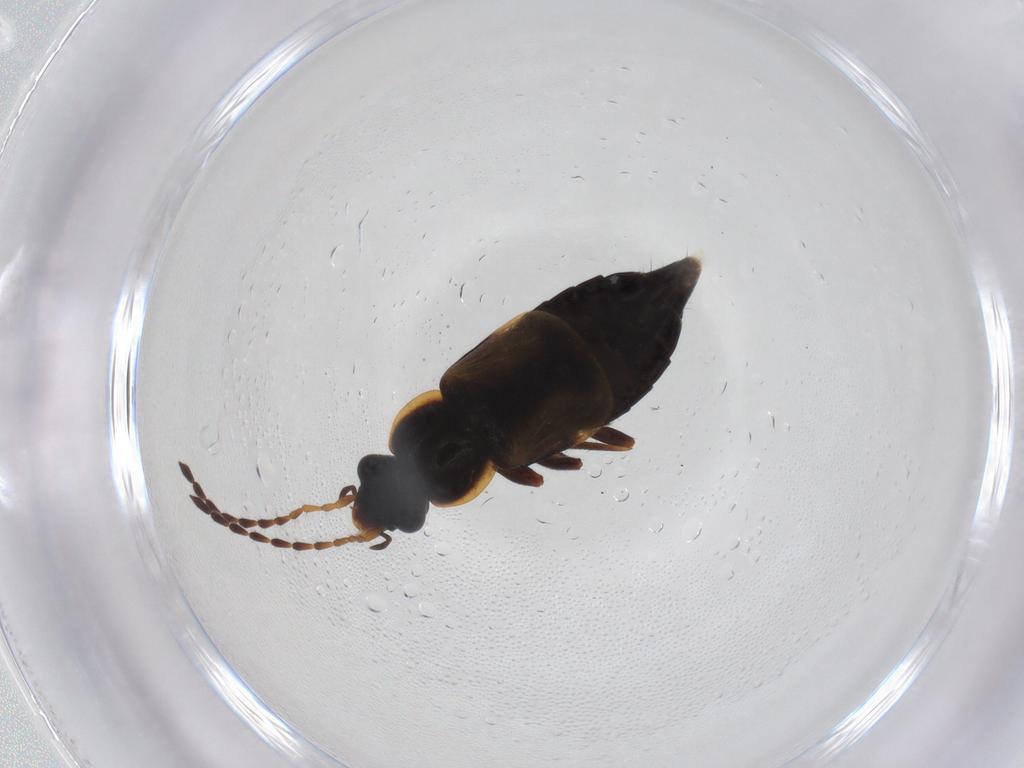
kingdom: Animalia
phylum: Arthropoda
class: Insecta
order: Coleoptera
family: Staphylinidae
